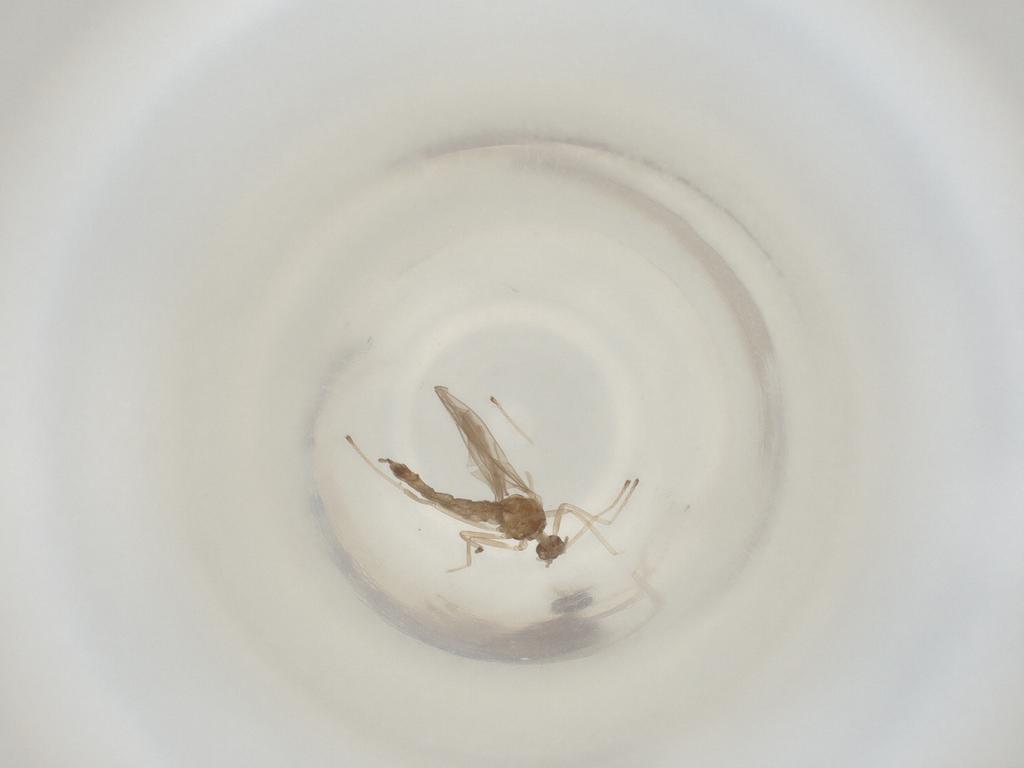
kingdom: Animalia
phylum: Arthropoda
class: Insecta
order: Diptera
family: Cecidomyiidae
